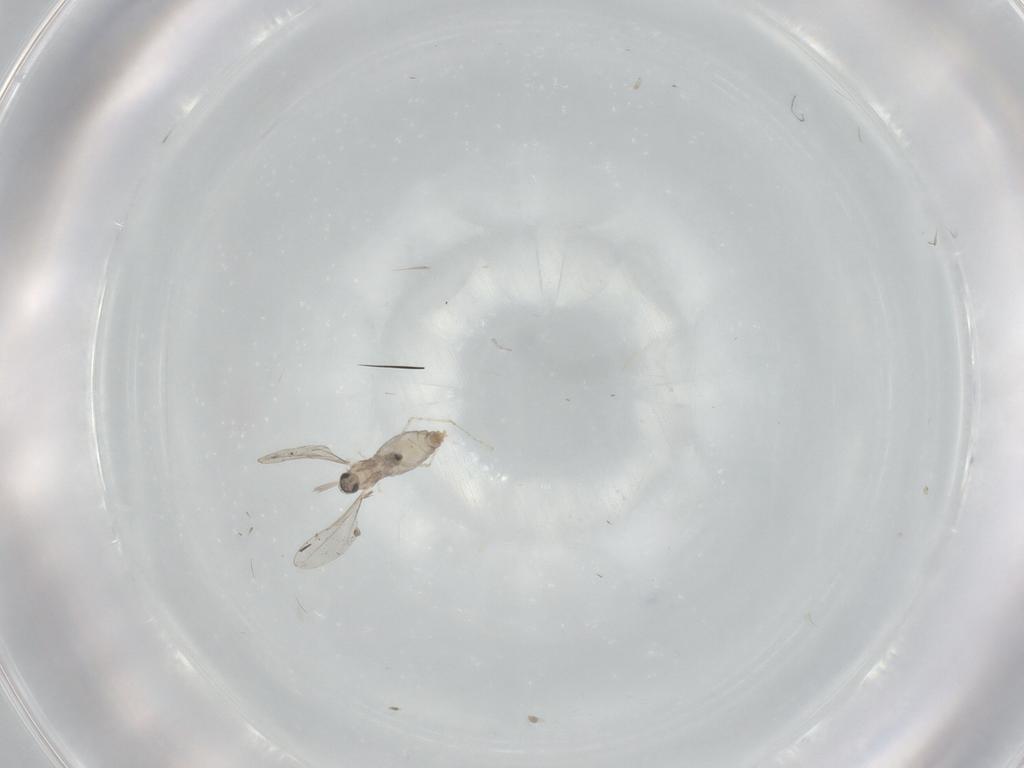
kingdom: Animalia
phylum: Arthropoda
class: Insecta
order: Diptera
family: Cecidomyiidae
